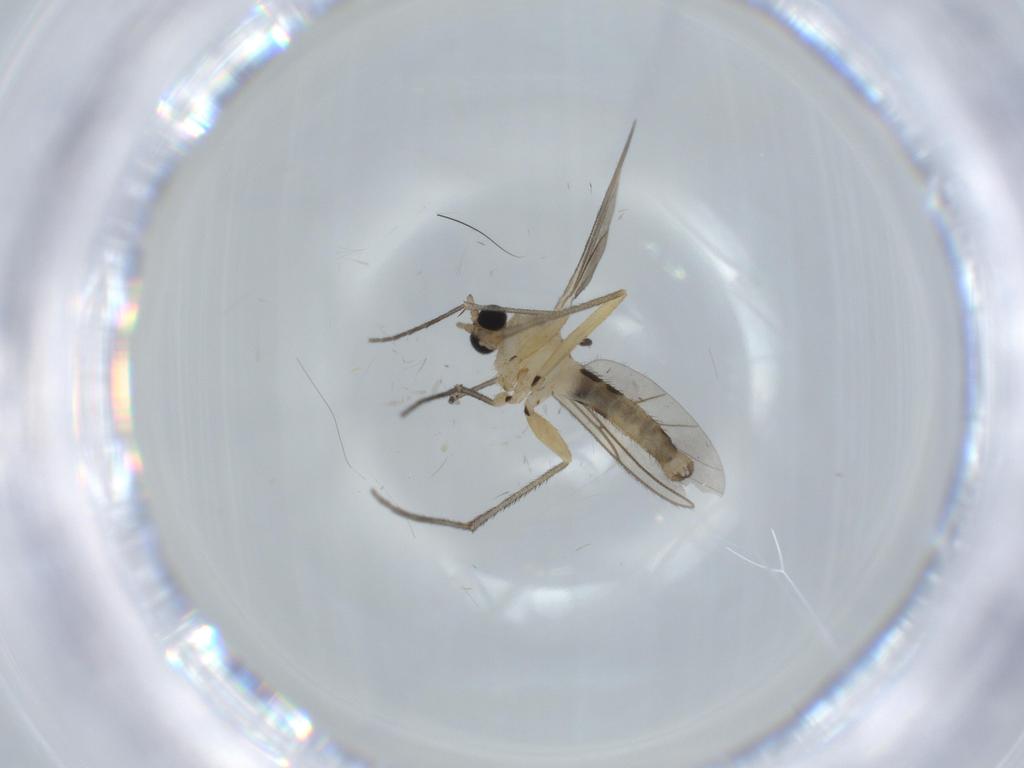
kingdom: Animalia
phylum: Arthropoda
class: Insecta
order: Diptera
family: Sciaridae
